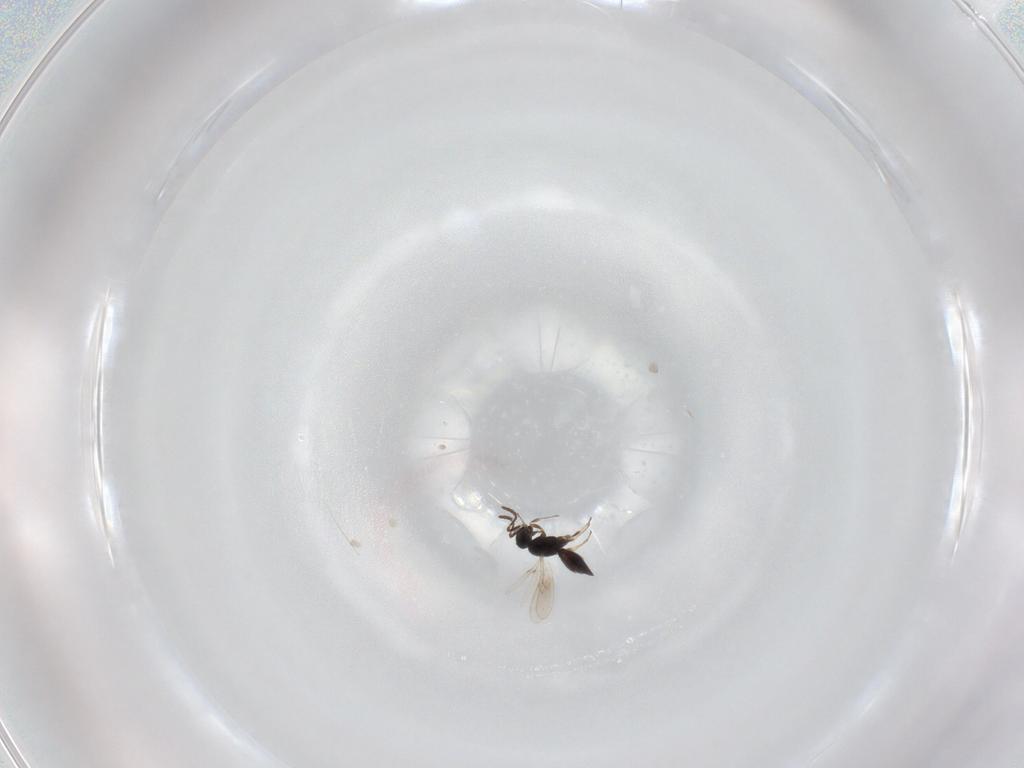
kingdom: Animalia
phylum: Arthropoda
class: Insecta
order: Hymenoptera
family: Scelionidae
